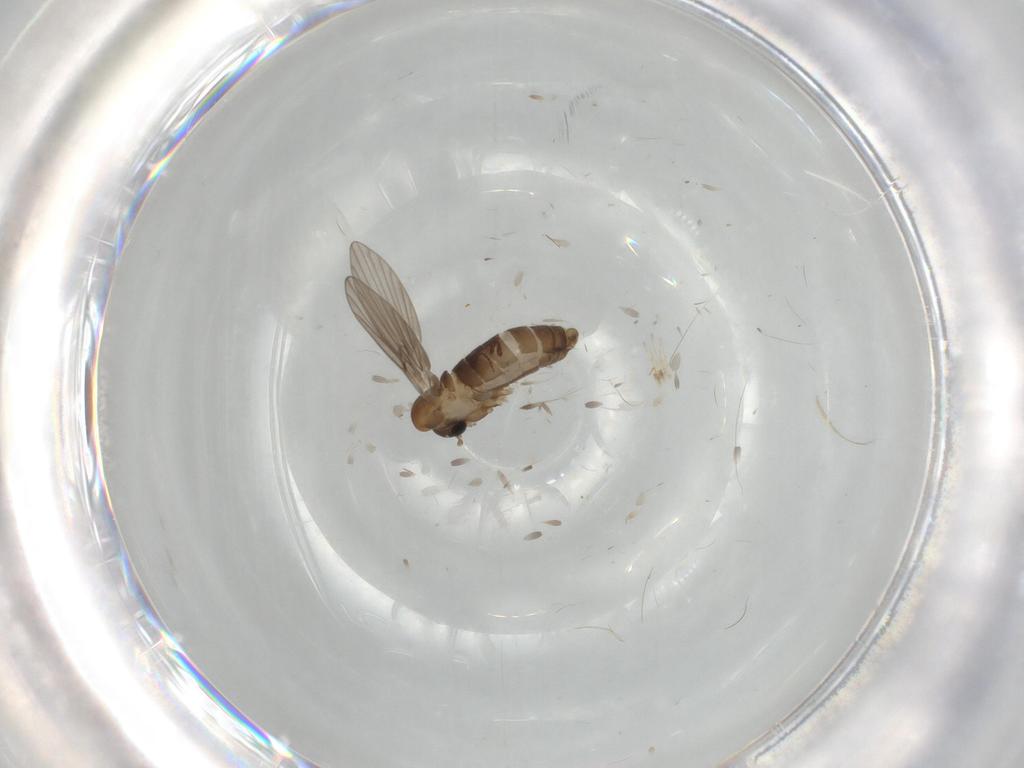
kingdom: Animalia
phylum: Arthropoda
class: Insecta
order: Diptera
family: Psychodidae
